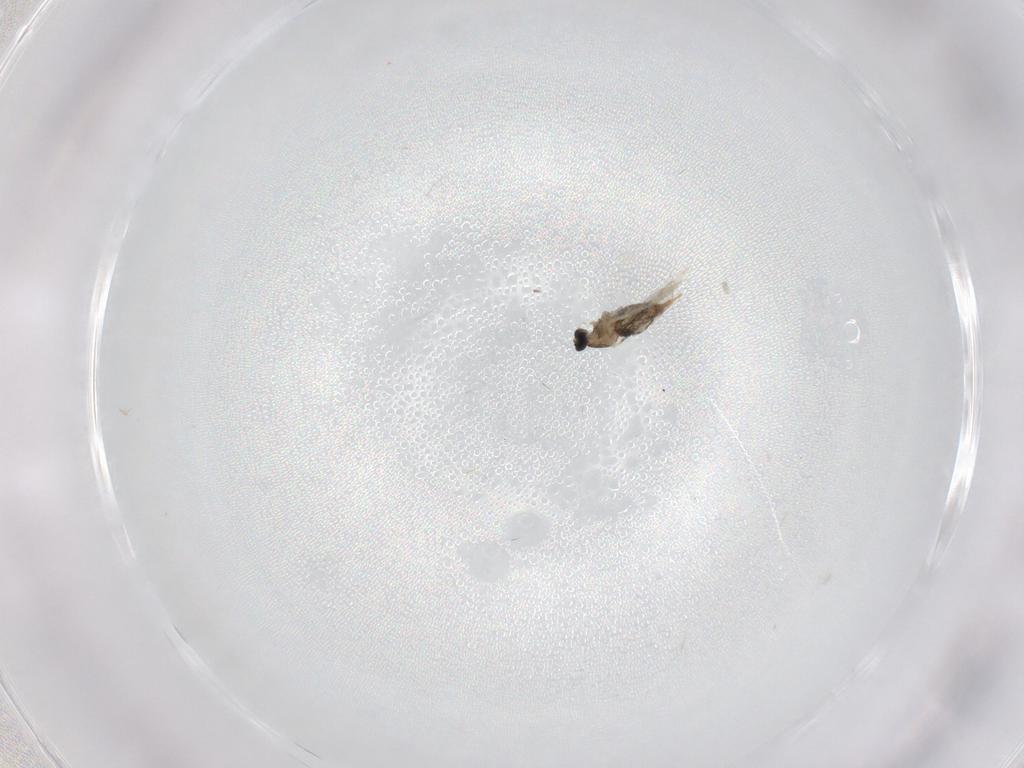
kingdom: Animalia
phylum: Arthropoda
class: Insecta
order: Diptera
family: Cecidomyiidae
